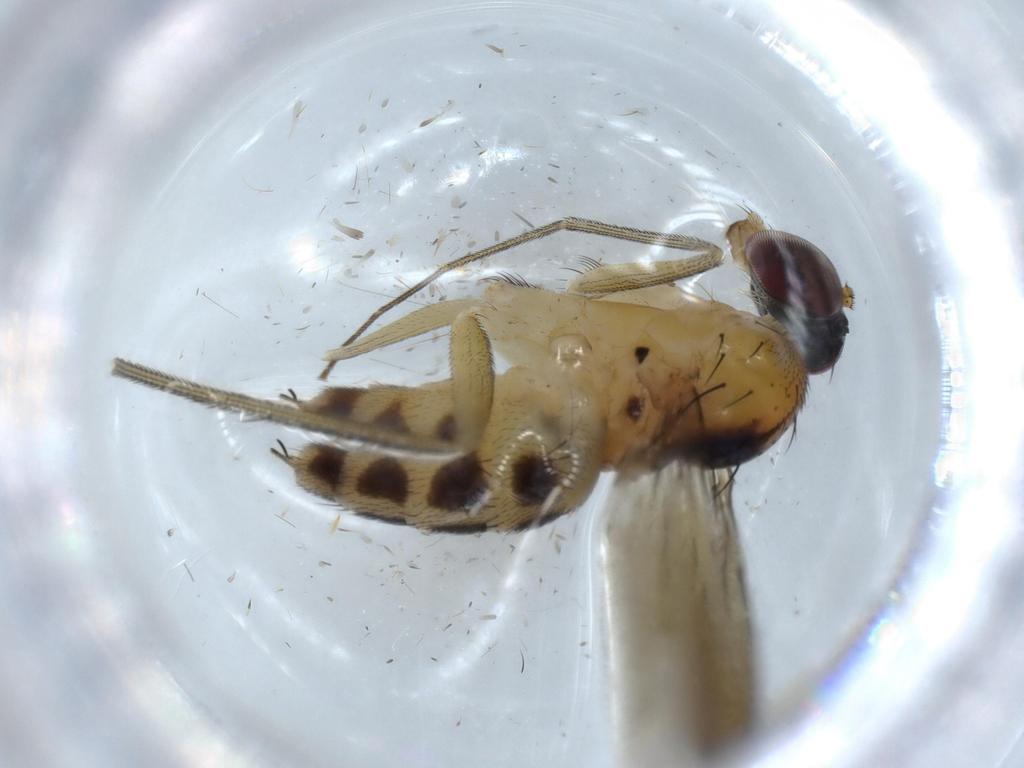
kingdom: Animalia
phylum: Arthropoda
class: Insecta
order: Diptera
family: Dolichopodidae
